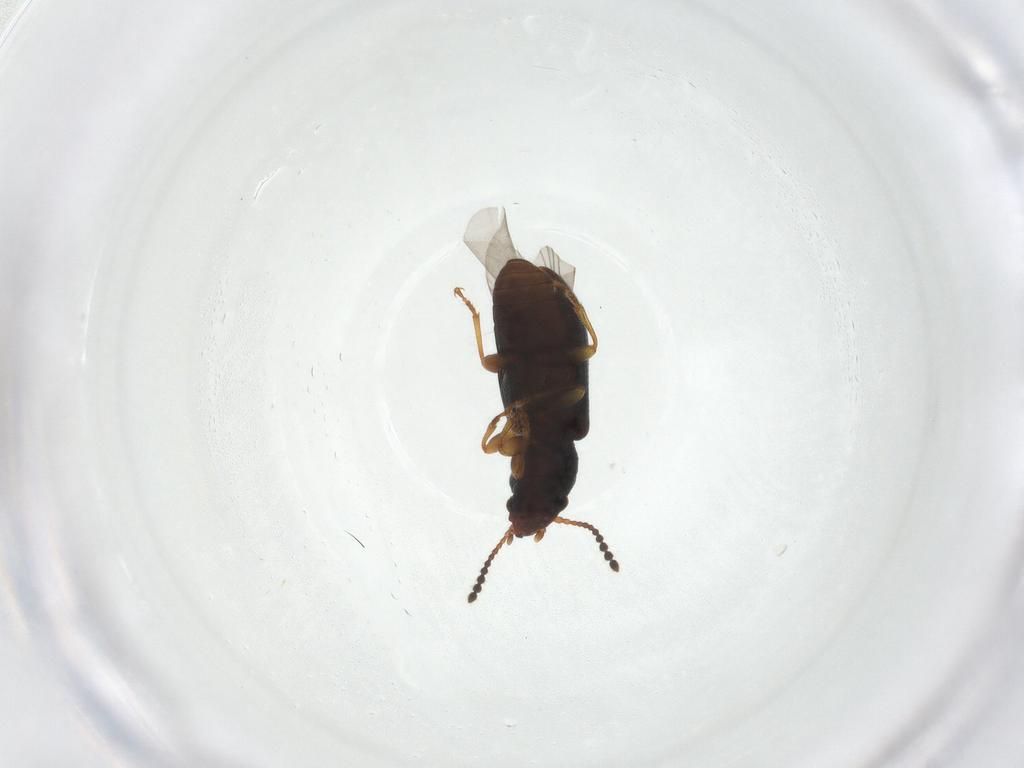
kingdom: Animalia
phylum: Arthropoda
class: Insecta
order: Coleoptera
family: Salpingidae
